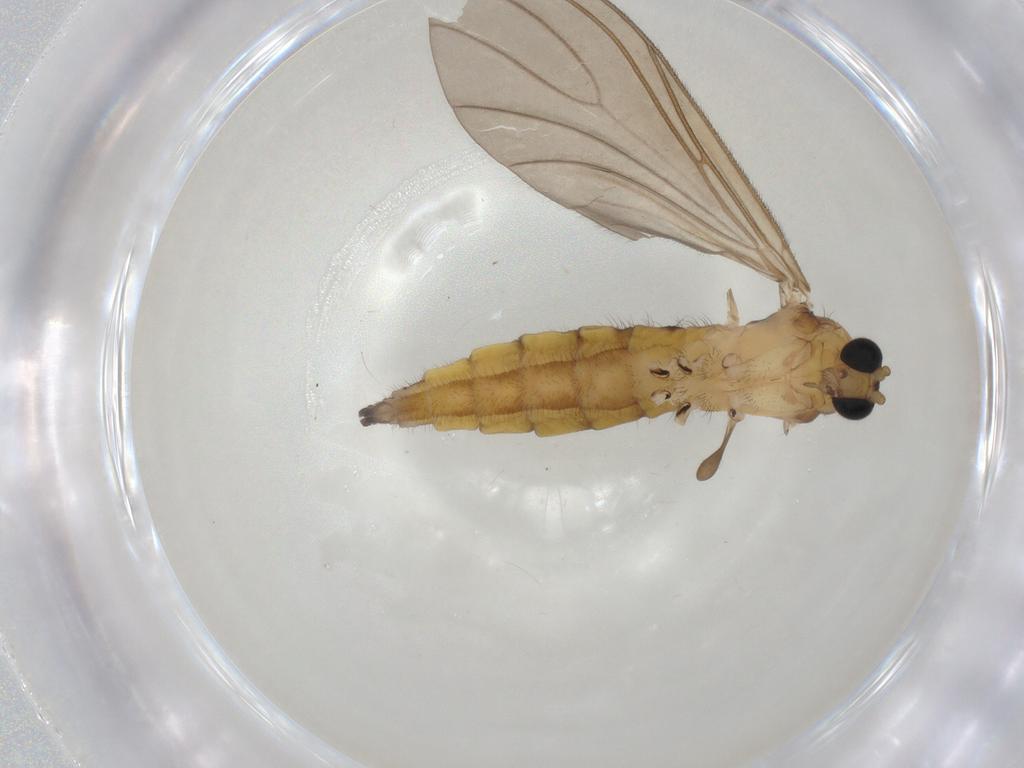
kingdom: Animalia
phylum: Arthropoda
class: Insecta
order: Diptera
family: Sciaridae
